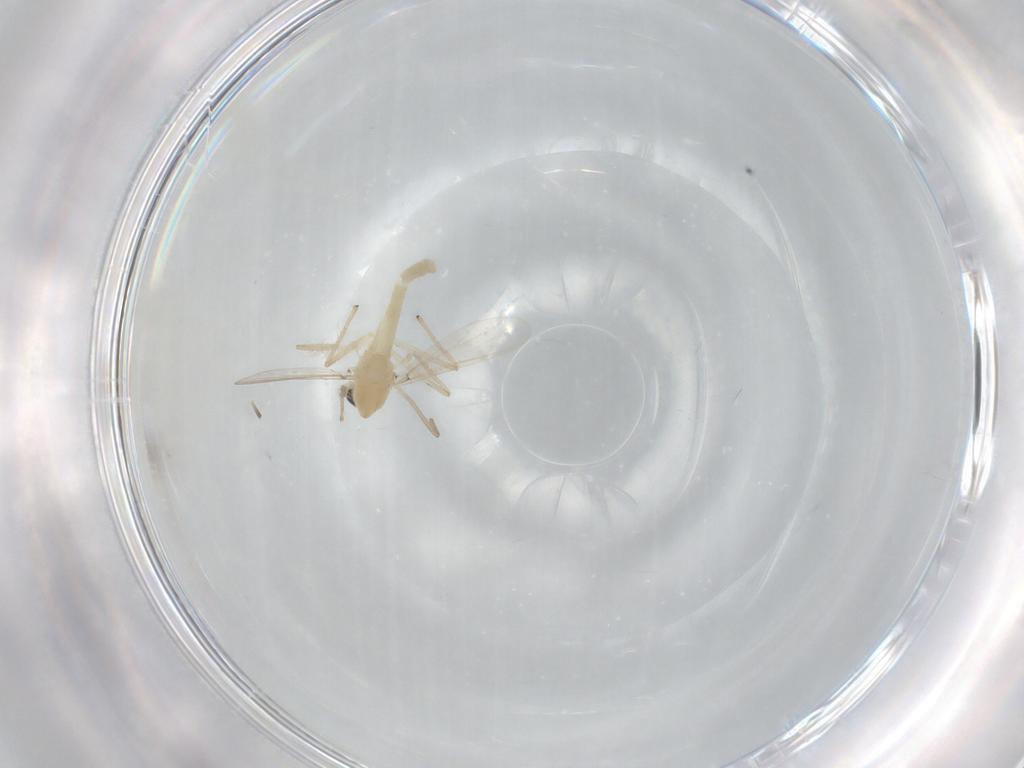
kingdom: Animalia
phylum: Arthropoda
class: Insecta
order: Diptera
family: Chironomidae
